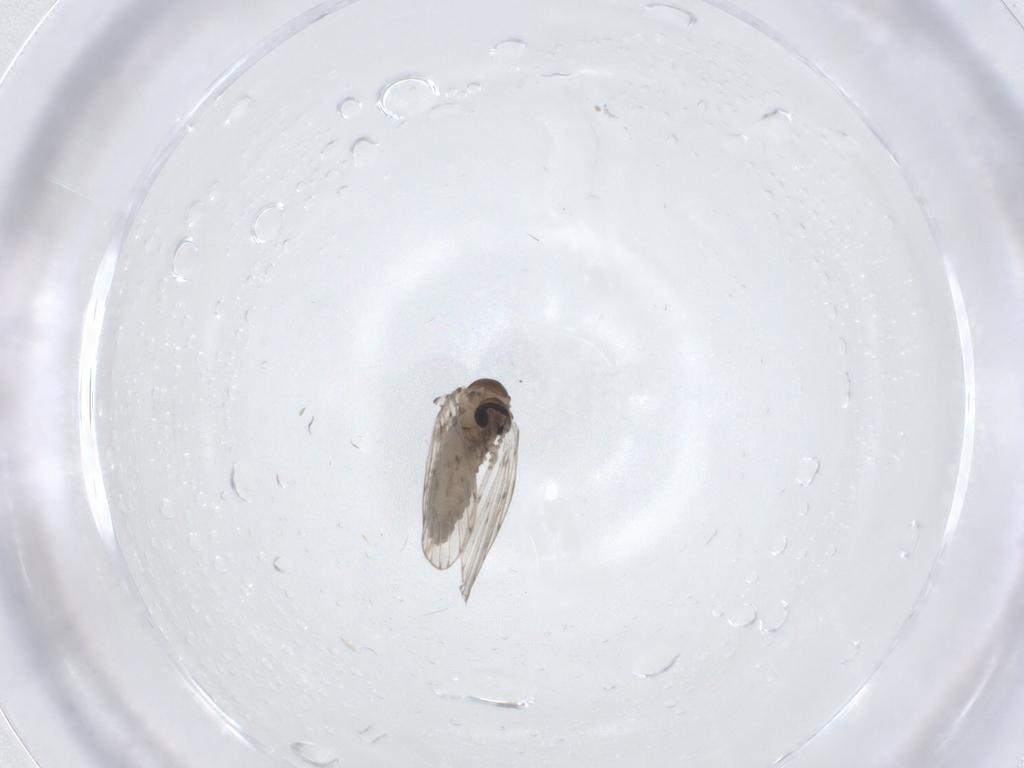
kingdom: Animalia
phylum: Arthropoda
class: Insecta
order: Diptera
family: Psychodidae
